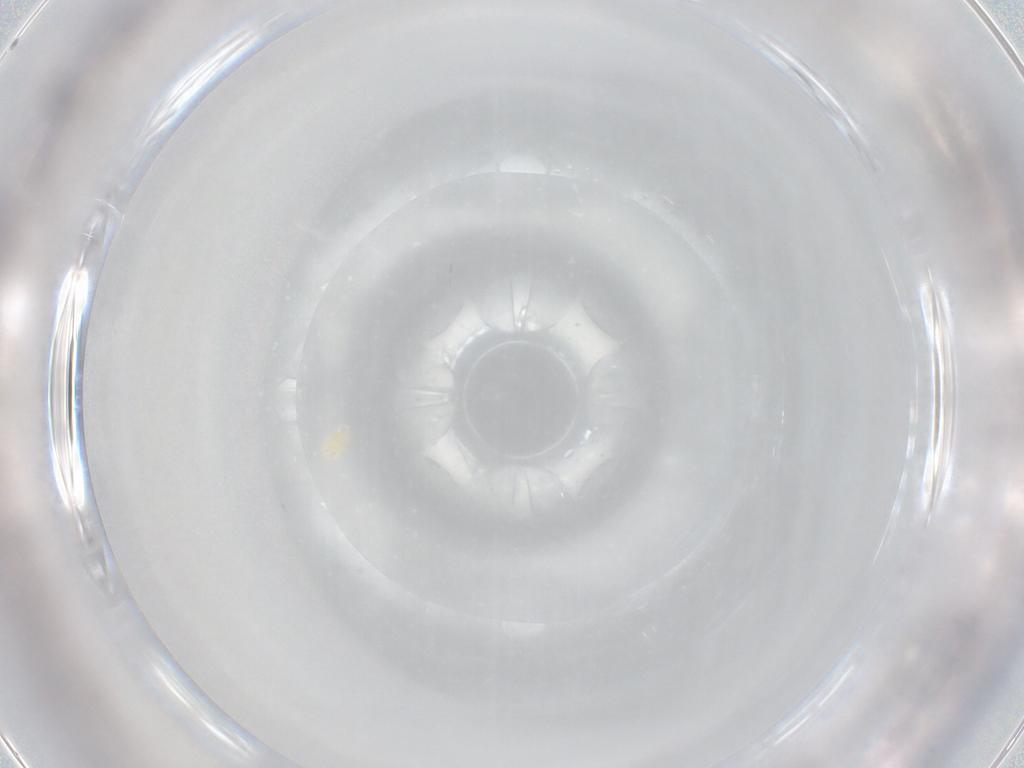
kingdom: Animalia
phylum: Arthropoda
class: Arachnida
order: Trombidiformes
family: Eupodidae
